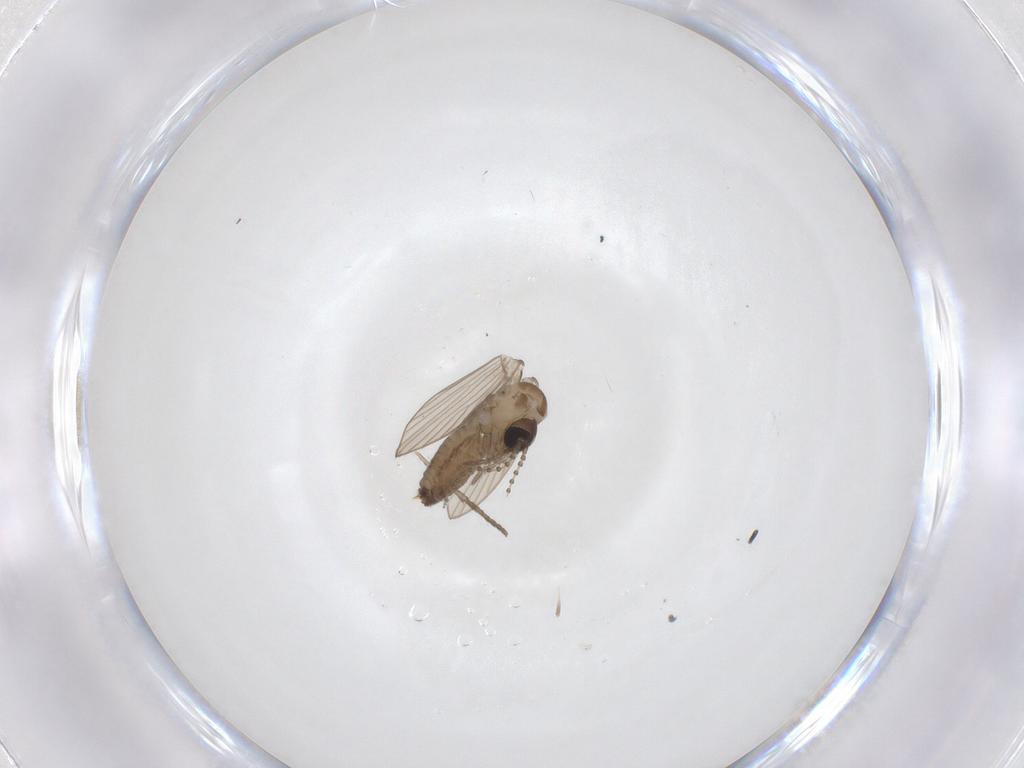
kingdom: Animalia
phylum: Arthropoda
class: Insecta
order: Diptera
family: Psychodidae
